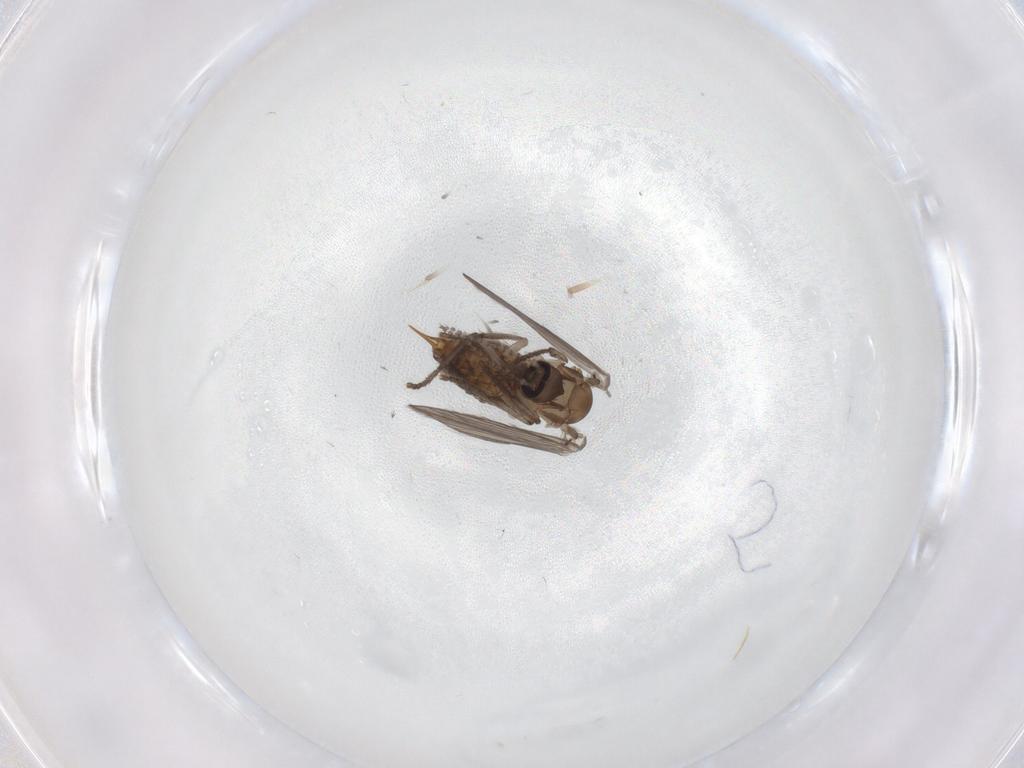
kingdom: Animalia
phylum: Arthropoda
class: Insecta
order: Diptera
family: Psychodidae
